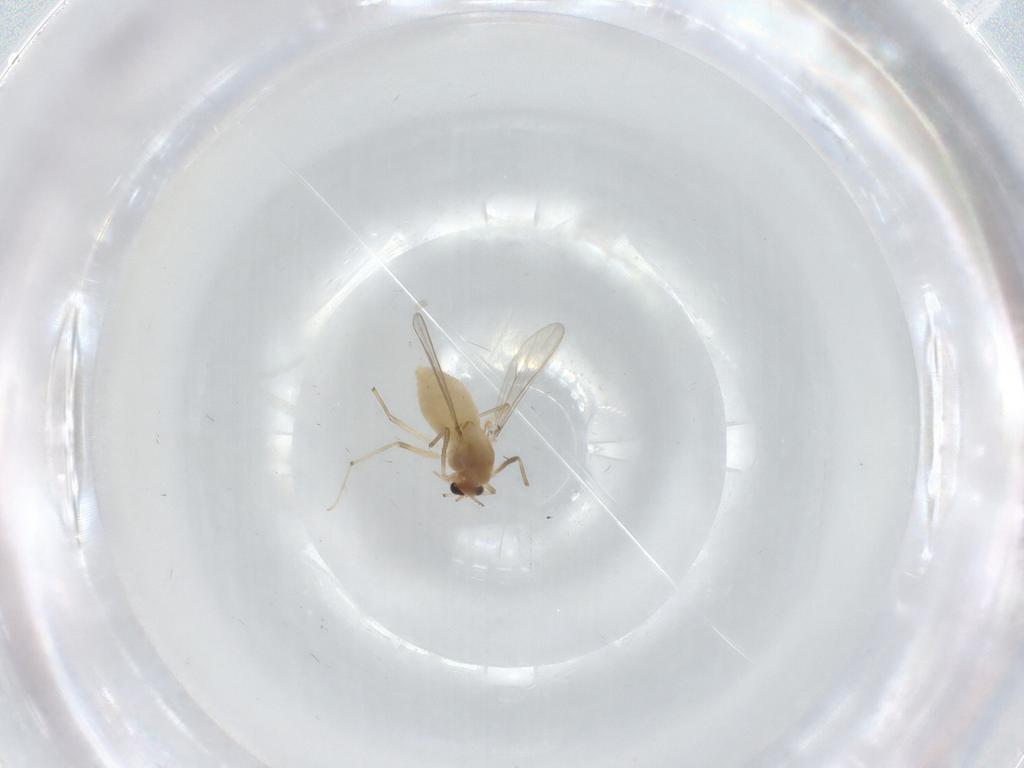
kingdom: Animalia
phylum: Arthropoda
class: Insecta
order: Diptera
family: Chironomidae
